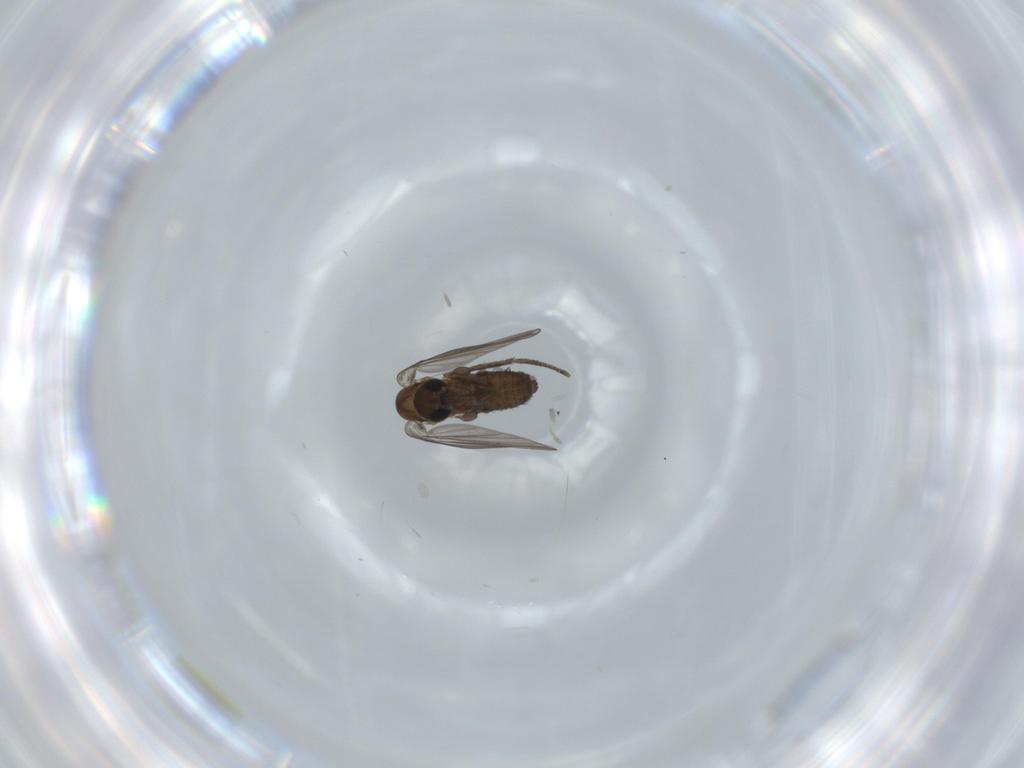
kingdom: Animalia
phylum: Arthropoda
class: Insecta
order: Diptera
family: Psychodidae
